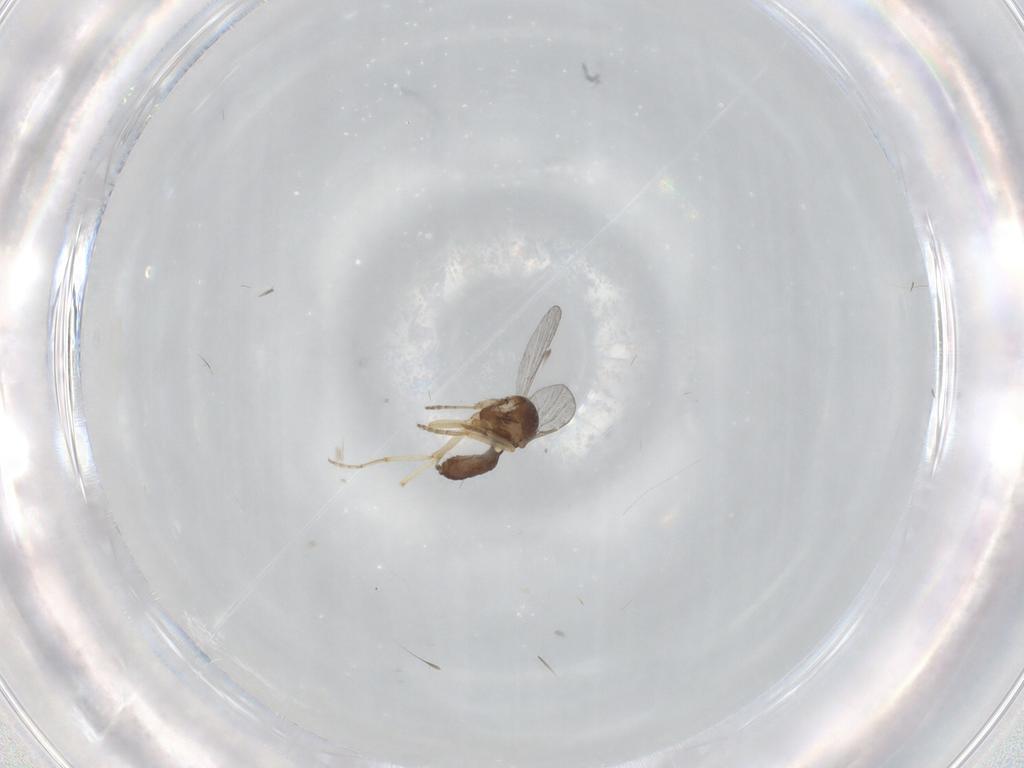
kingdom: Animalia
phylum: Arthropoda
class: Insecta
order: Diptera
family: Ceratopogonidae
